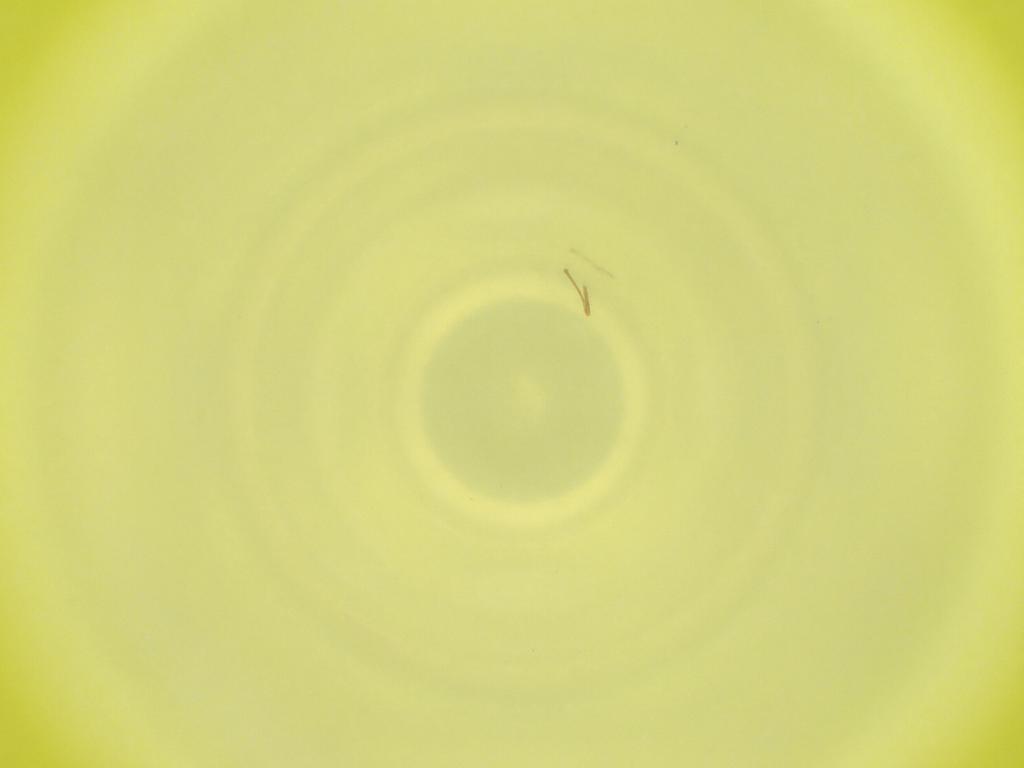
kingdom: Animalia
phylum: Arthropoda
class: Insecta
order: Diptera
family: Cecidomyiidae
